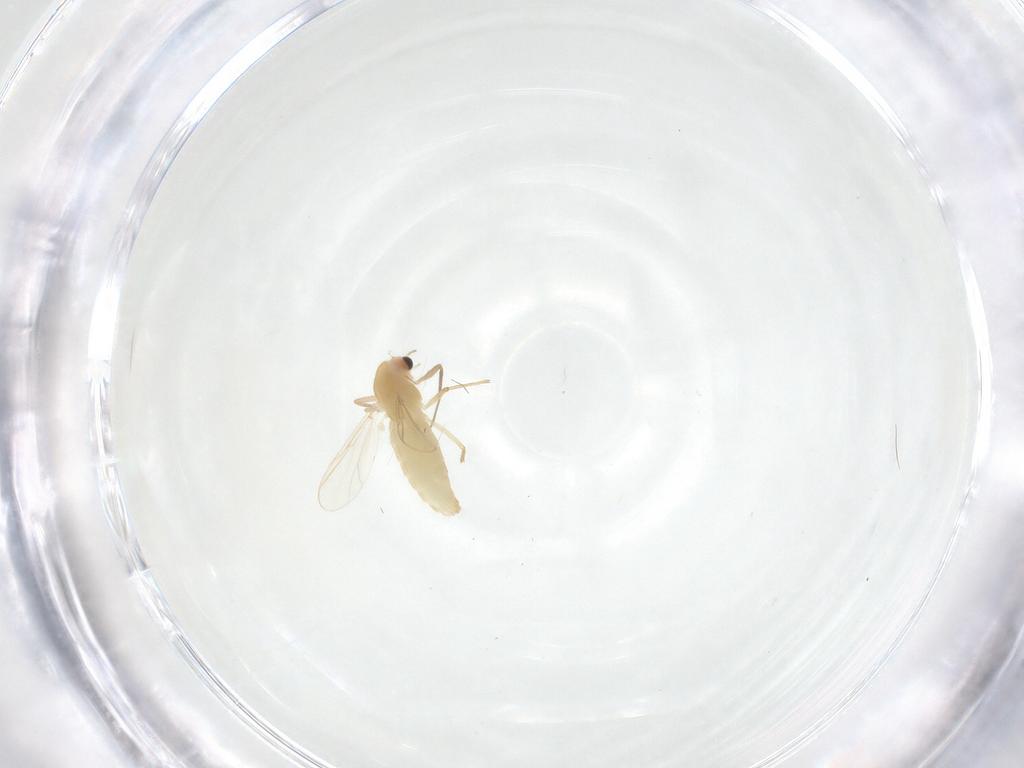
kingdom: Animalia
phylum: Arthropoda
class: Insecta
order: Diptera
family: Chironomidae
